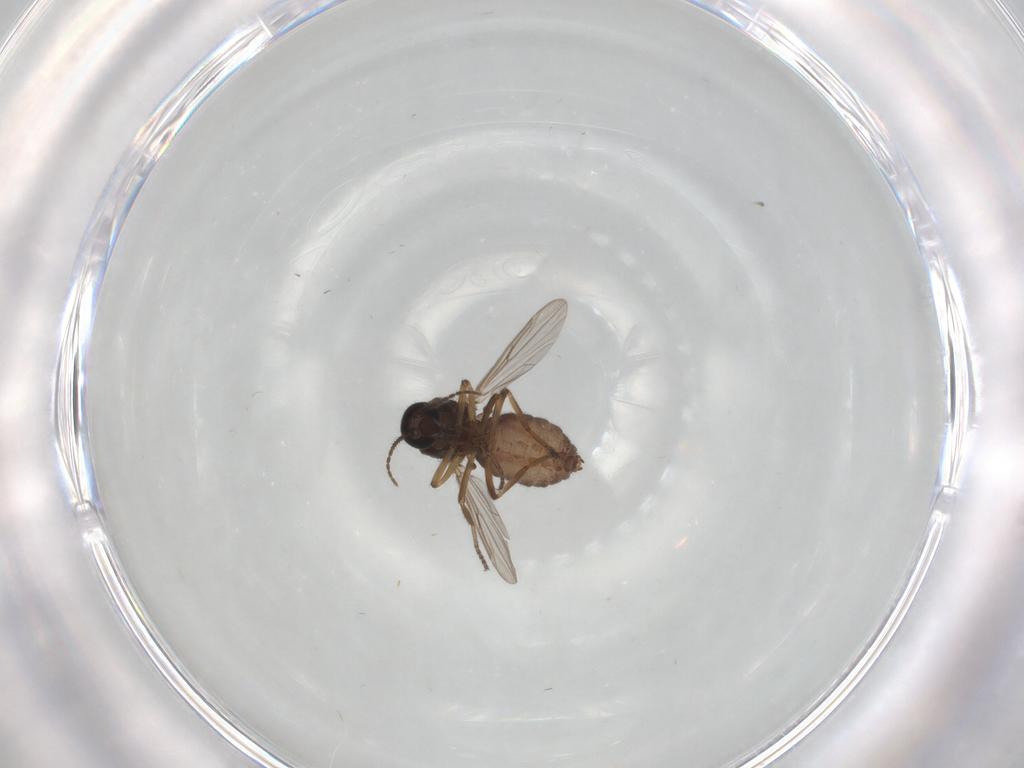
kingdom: Animalia
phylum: Arthropoda
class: Insecta
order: Diptera
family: Ceratopogonidae
